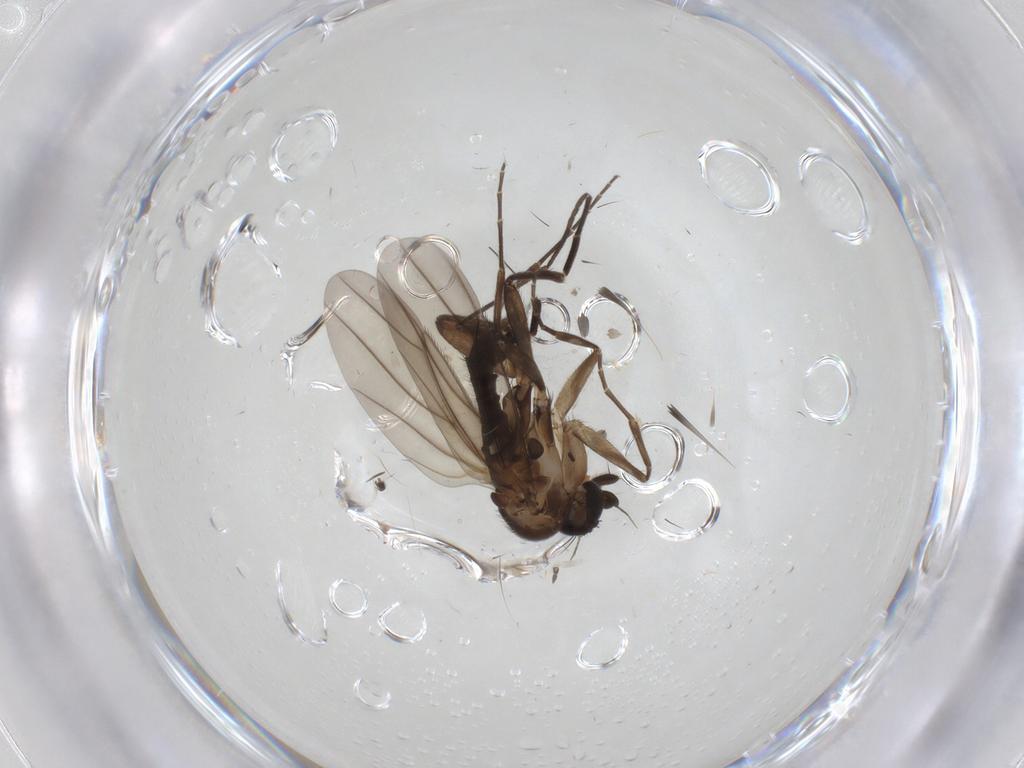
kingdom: Animalia
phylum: Arthropoda
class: Insecta
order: Diptera
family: Phoridae
